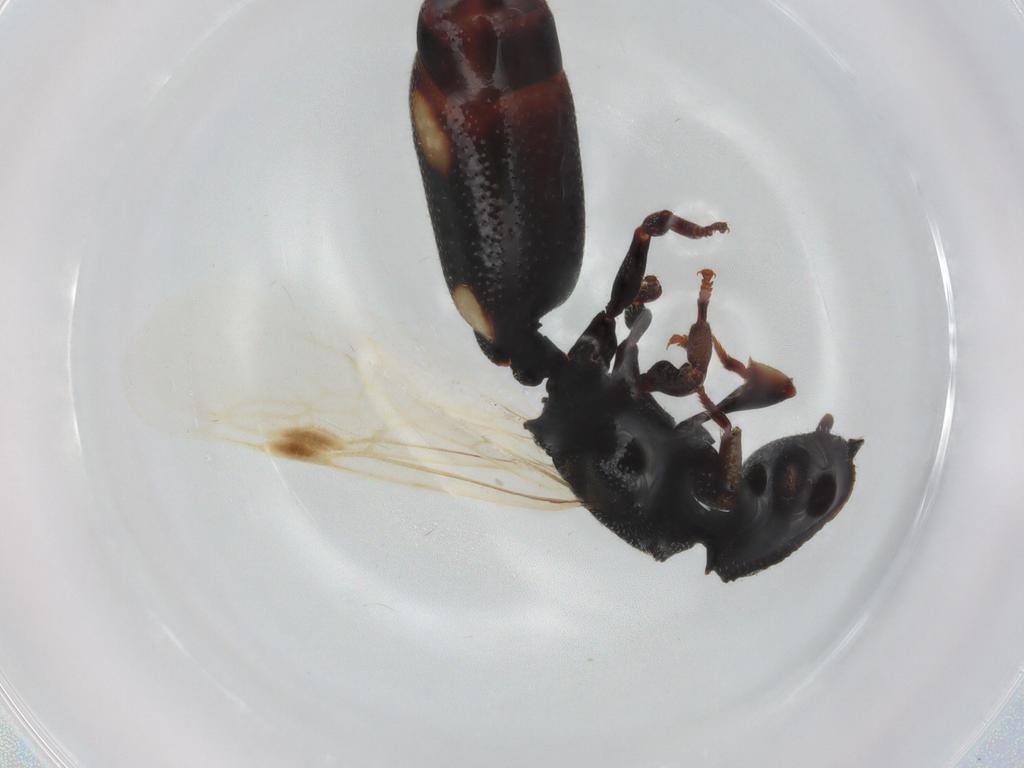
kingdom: Animalia
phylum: Arthropoda
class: Insecta
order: Hymenoptera
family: Formicidae
